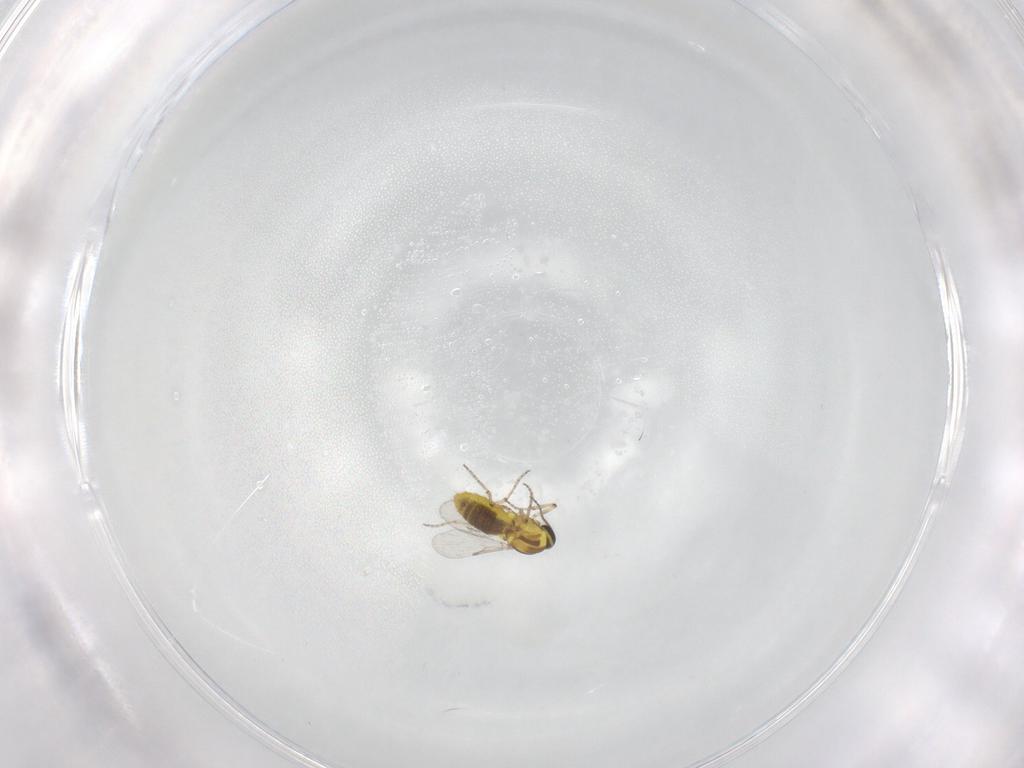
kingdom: Animalia
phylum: Arthropoda
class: Insecta
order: Diptera
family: Ceratopogonidae
